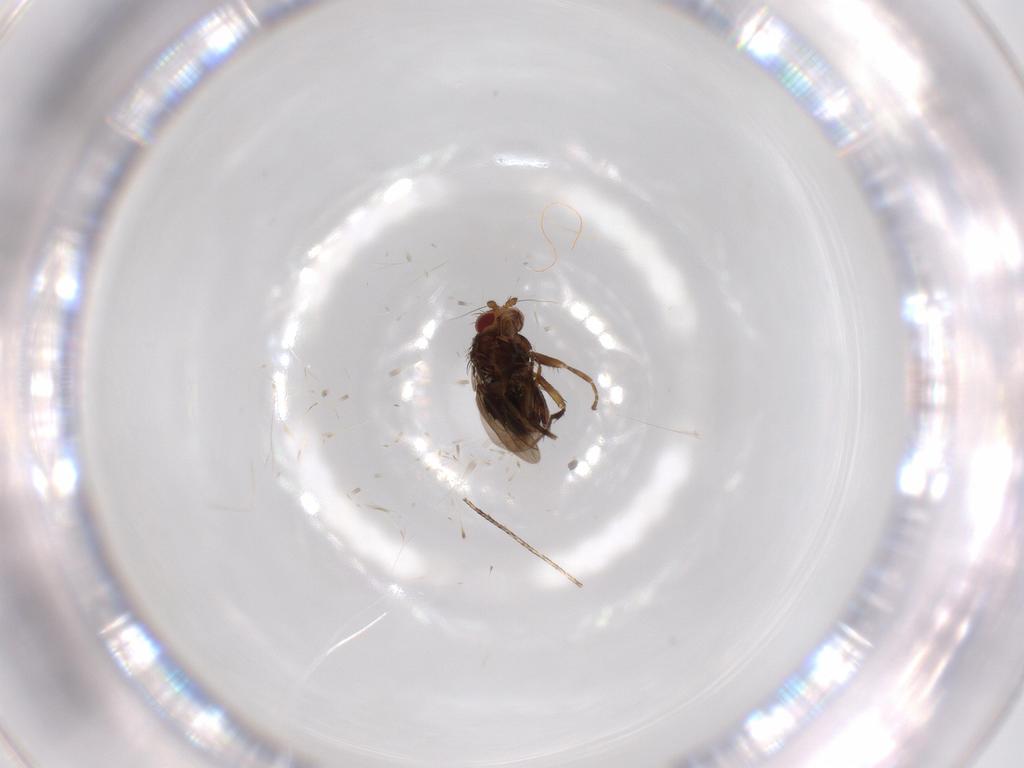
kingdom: Animalia
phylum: Arthropoda
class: Insecta
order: Diptera
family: Sphaeroceridae
